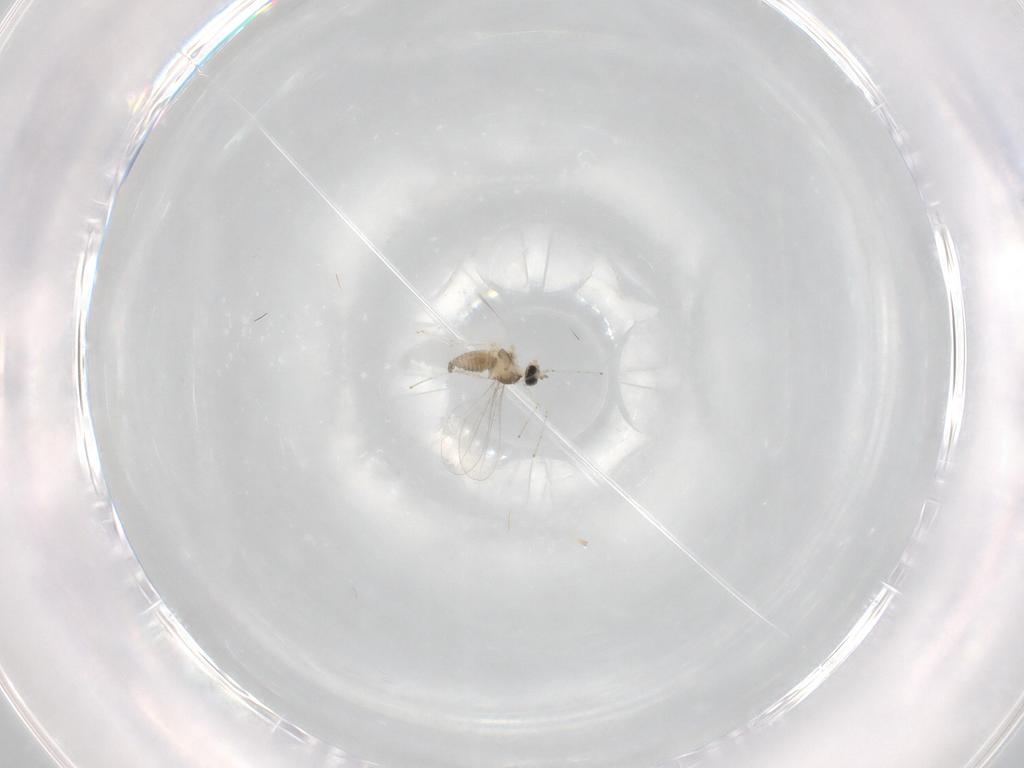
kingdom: Animalia
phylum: Arthropoda
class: Insecta
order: Diptera
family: Cecidomyiidae
